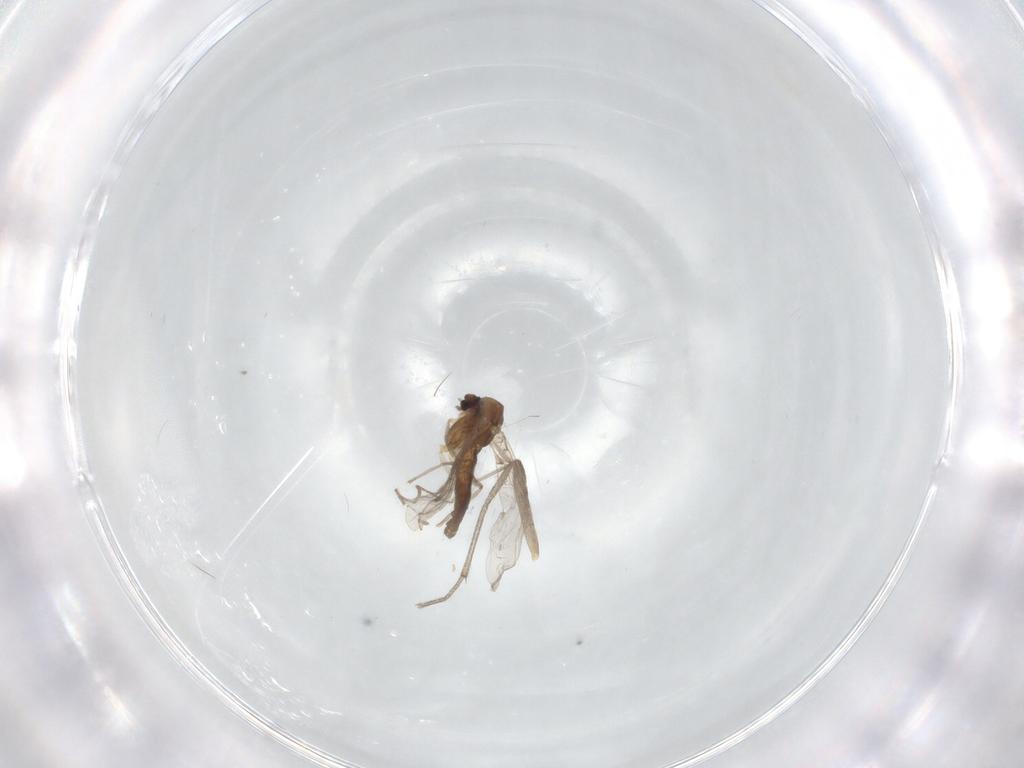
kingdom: Animalia
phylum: Arthropoda
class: Insecta
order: Diptera
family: Chironomidae
